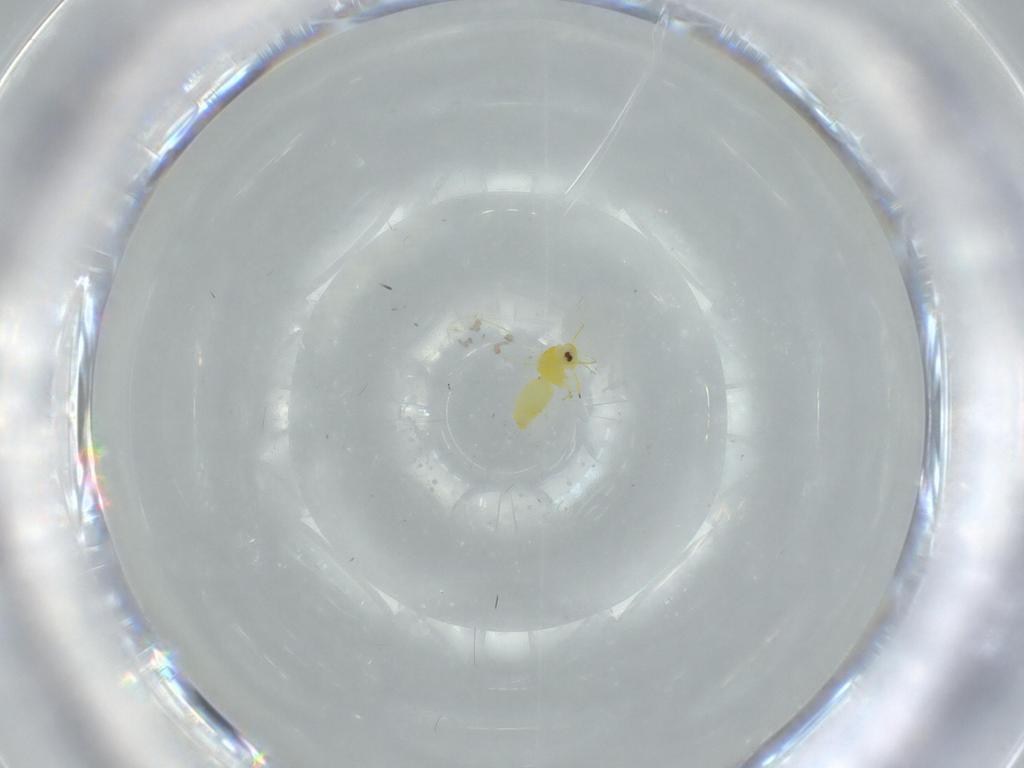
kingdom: Animalia
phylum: Arthropoda
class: Insecta
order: Hemiptera
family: Aleyrodidae
